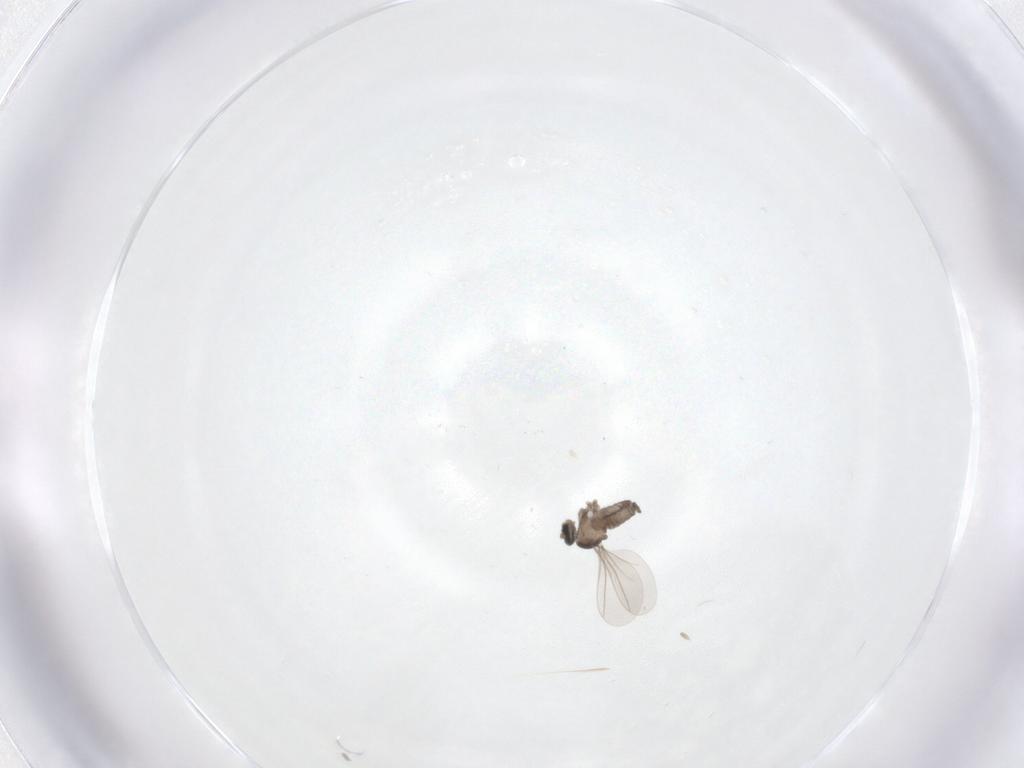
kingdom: Animalia
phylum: Arthropoda
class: Insecta
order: Diptera
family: Cecidomyiidae
